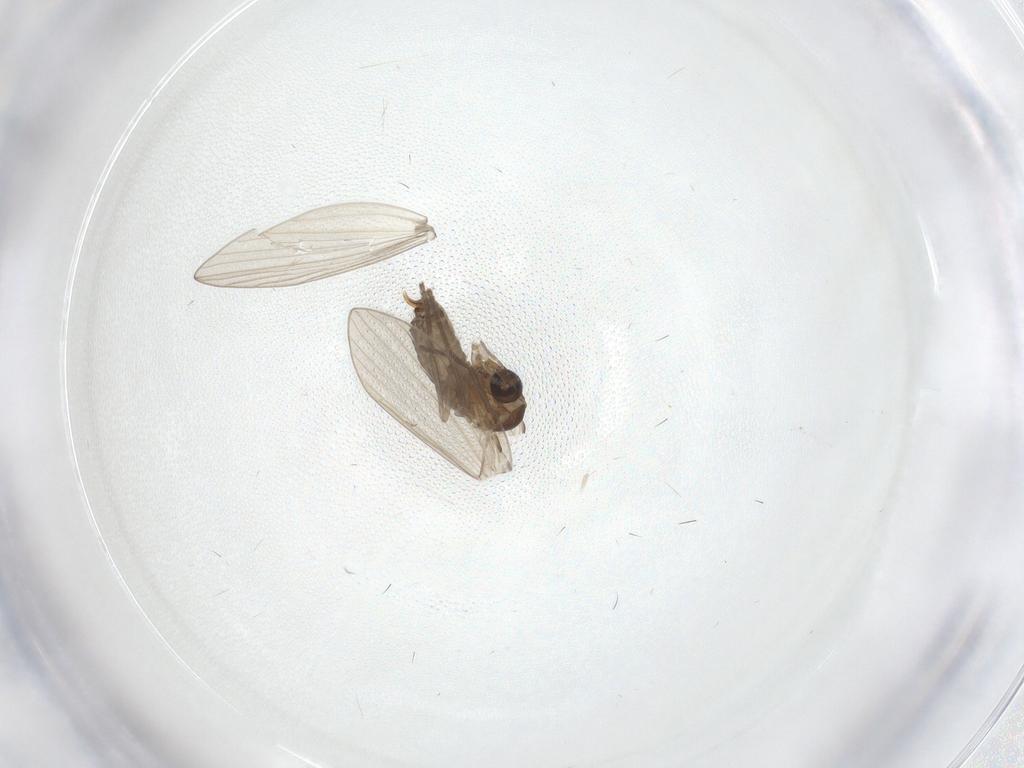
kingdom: Animalia
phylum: Arthropoda
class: Insecta
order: Diptera
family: Psychodidae
